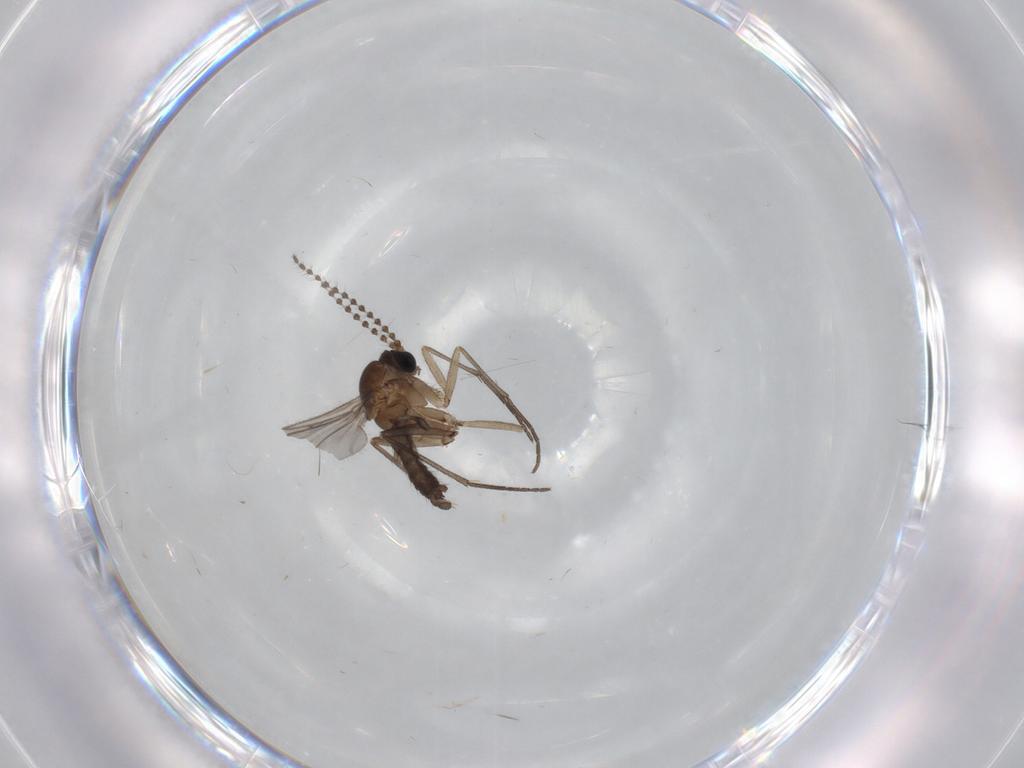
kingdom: Animalia
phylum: Arthropoda
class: Insecta
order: Diptera
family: Sciaridae
